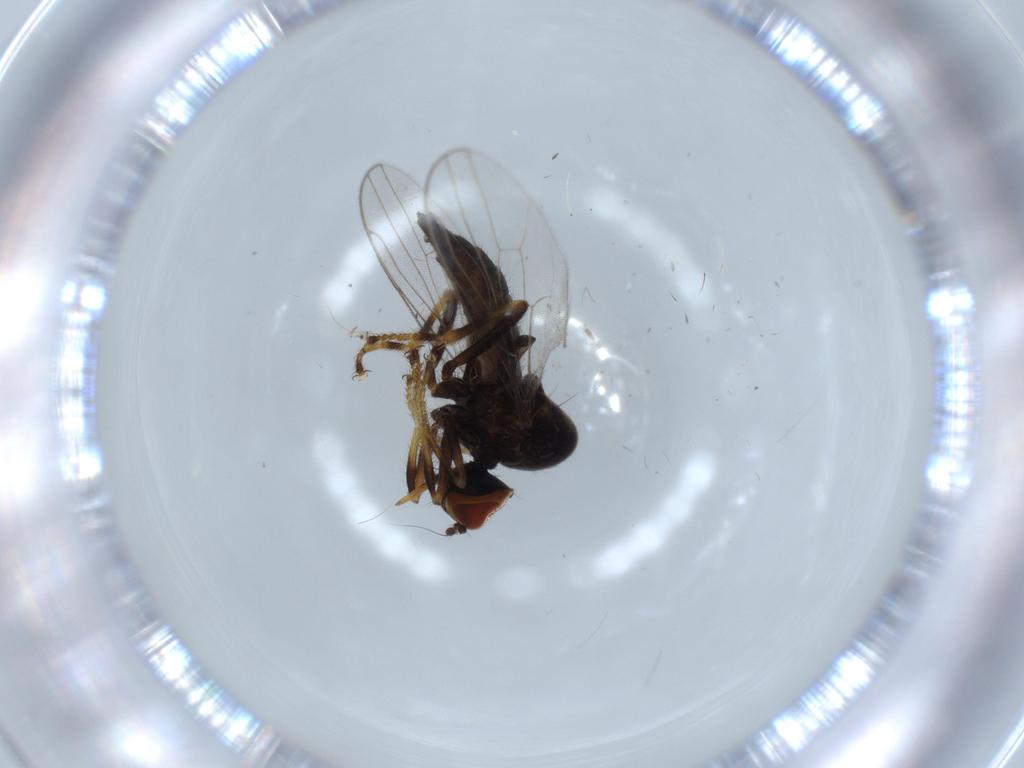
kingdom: Animalia
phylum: Arthropoda
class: Insecta
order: Diptera
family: Hybotidae
